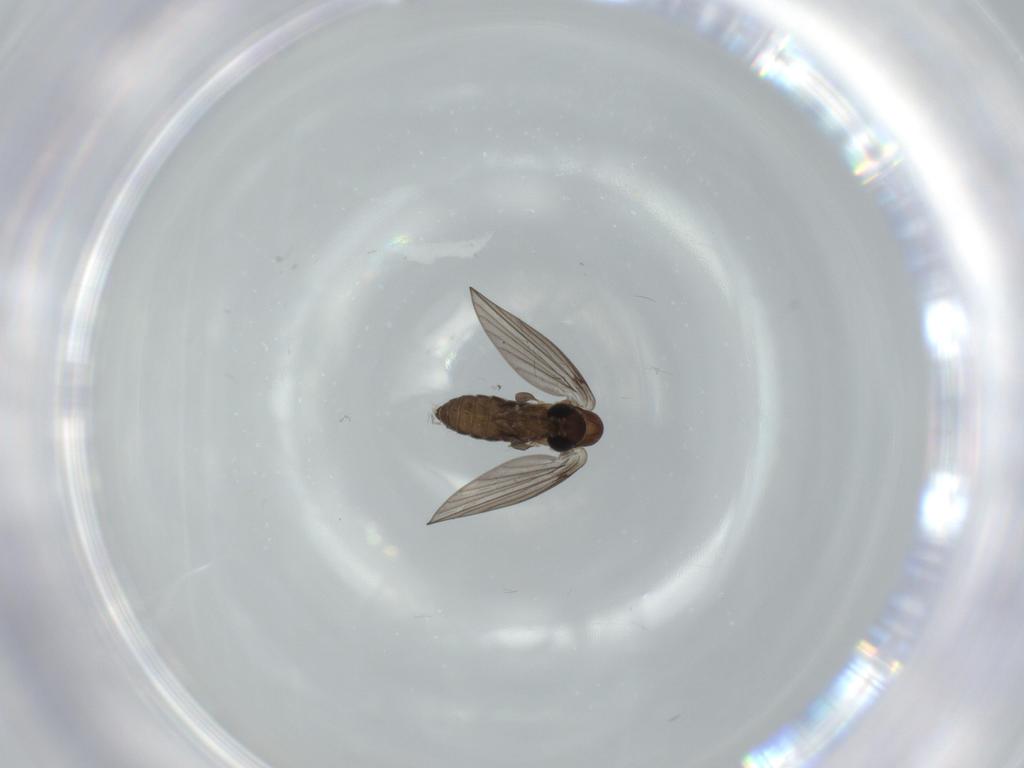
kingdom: Animalia
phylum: Arthropoda
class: Insecta
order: Diptera
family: Psychodidae
